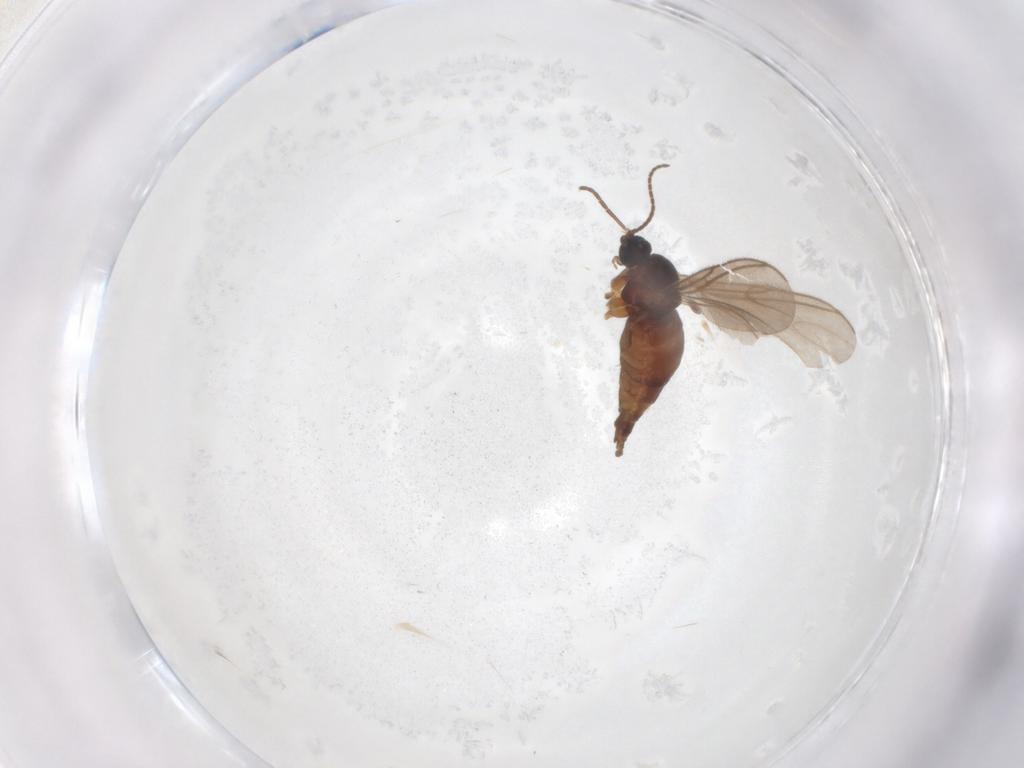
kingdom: Animalia
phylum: Arthropoda
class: Insecta
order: Diptera
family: Sciaridae
